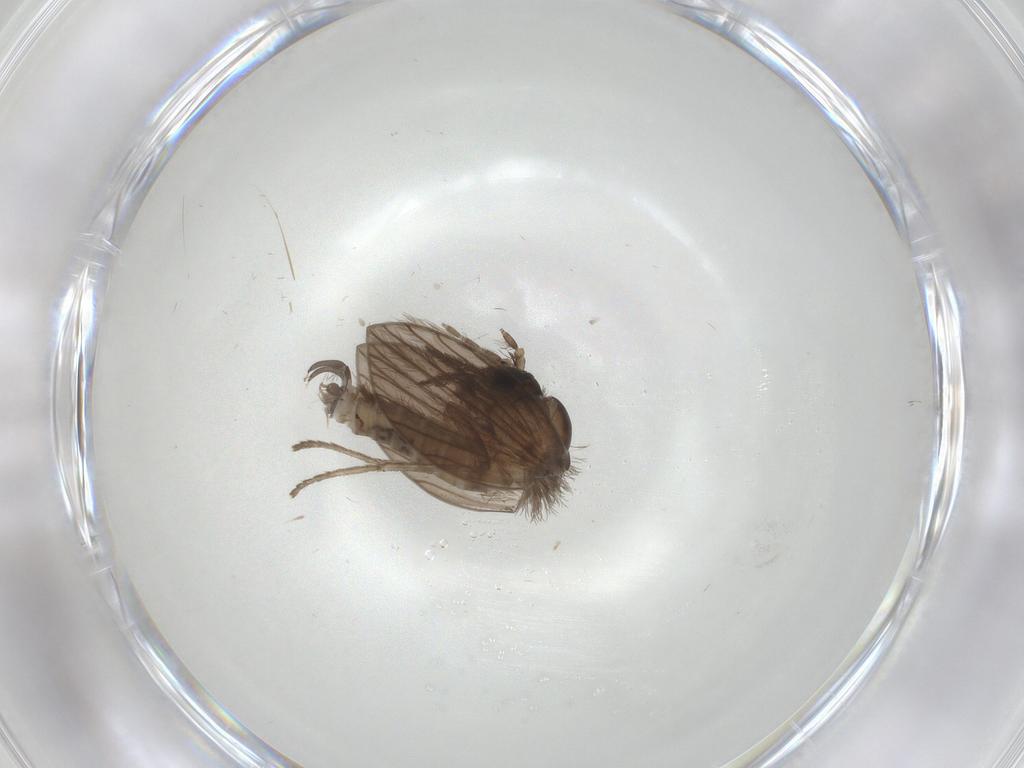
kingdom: Animalia
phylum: Arthropoda
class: Insecta
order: Diptera
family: Psychodidae
